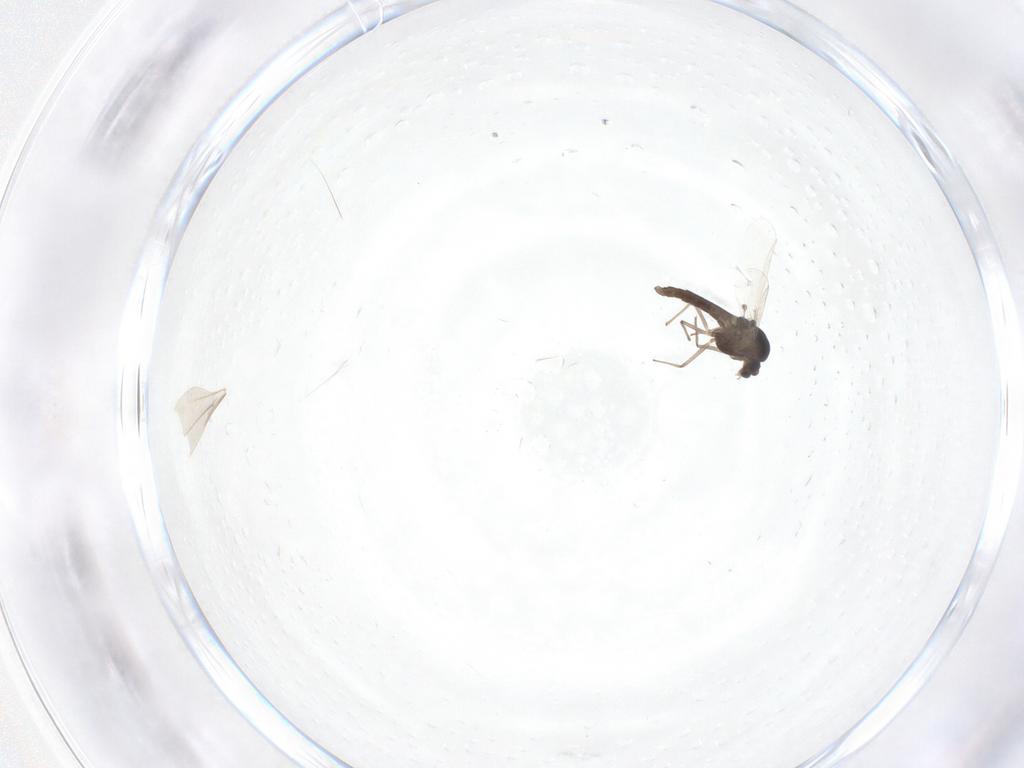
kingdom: Animalia
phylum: Arthropoda
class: Insecta
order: Diptera
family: Chironomidae
